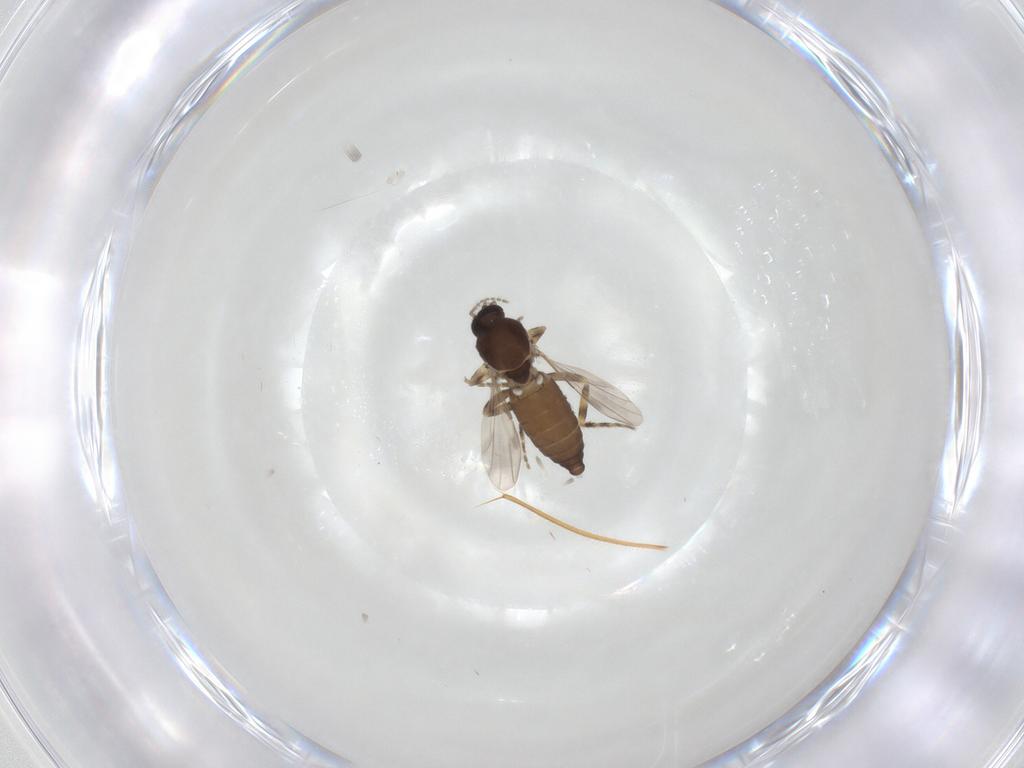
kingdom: Animalia
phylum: Arthropoda
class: Insecta
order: Diptera
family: Ceratopogonidae
